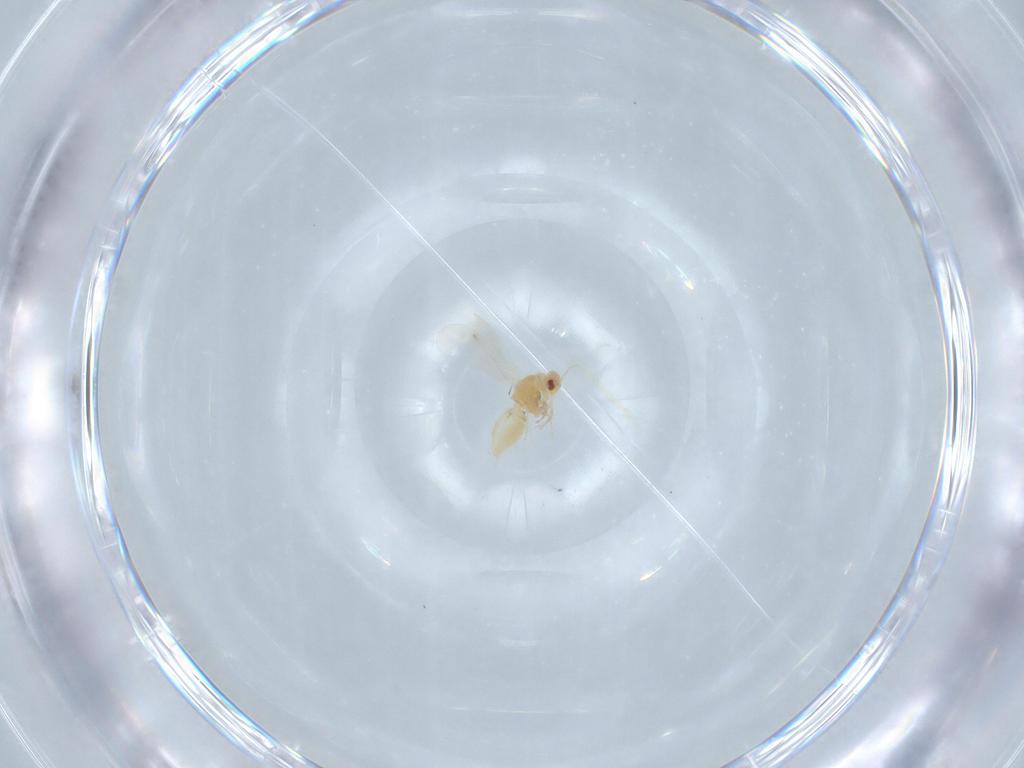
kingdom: Animalia
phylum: Arthropoda
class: Insecta
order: Hemiptera
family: Aleyrodidae
